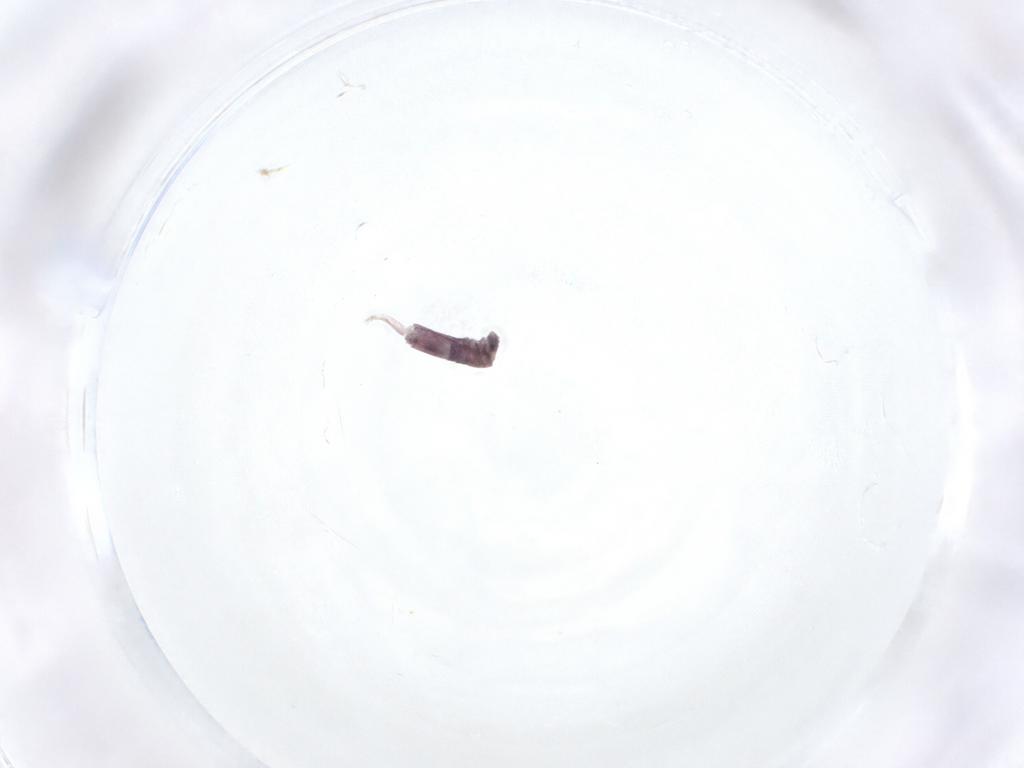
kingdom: Animalia
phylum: Arthropoda
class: Collembola
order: Entomobryomorpha
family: Entomobryidae
